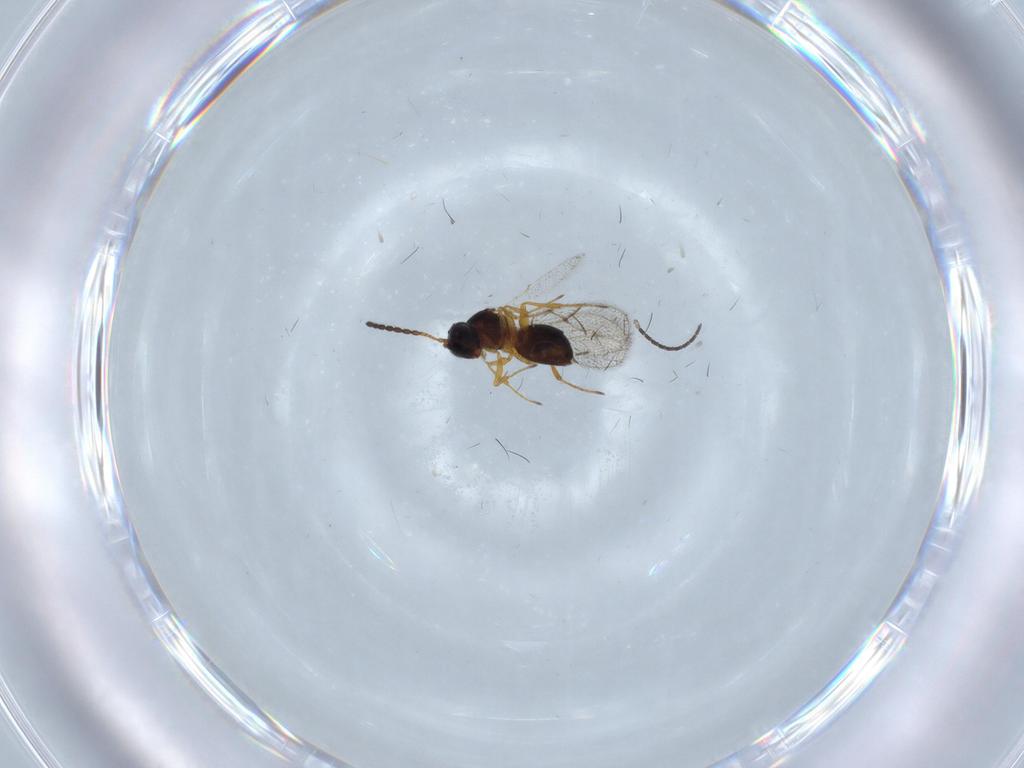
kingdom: Animalia
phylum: Arthropoda
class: Insecta
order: Hymenoptera
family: Figitidae
